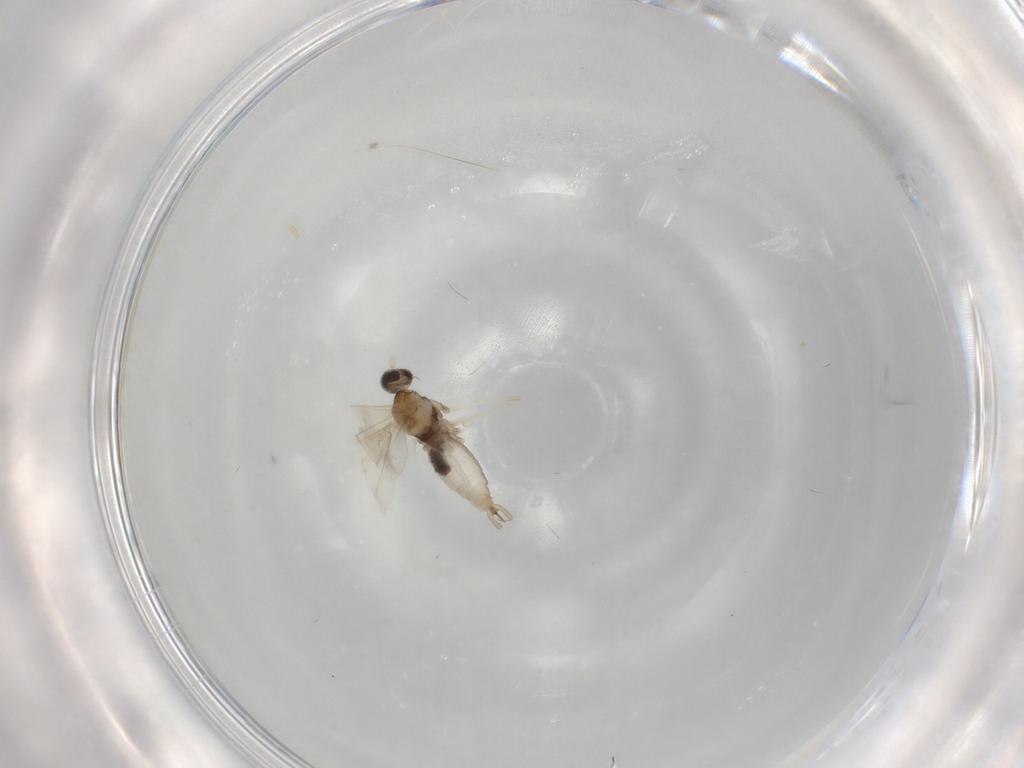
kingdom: Animalia
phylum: Arthropoda
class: Insecta
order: Diptera
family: Cecidomyiidae
